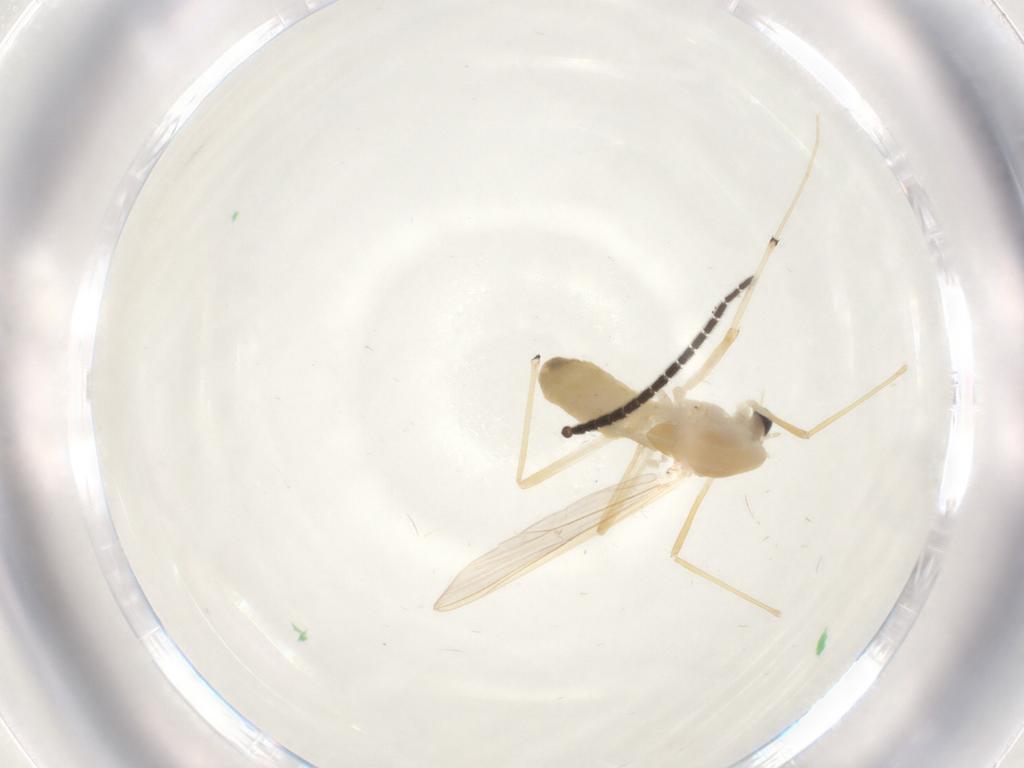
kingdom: Animalia
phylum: Arthropoda
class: Insecta
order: Diptera
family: Chironomidae
